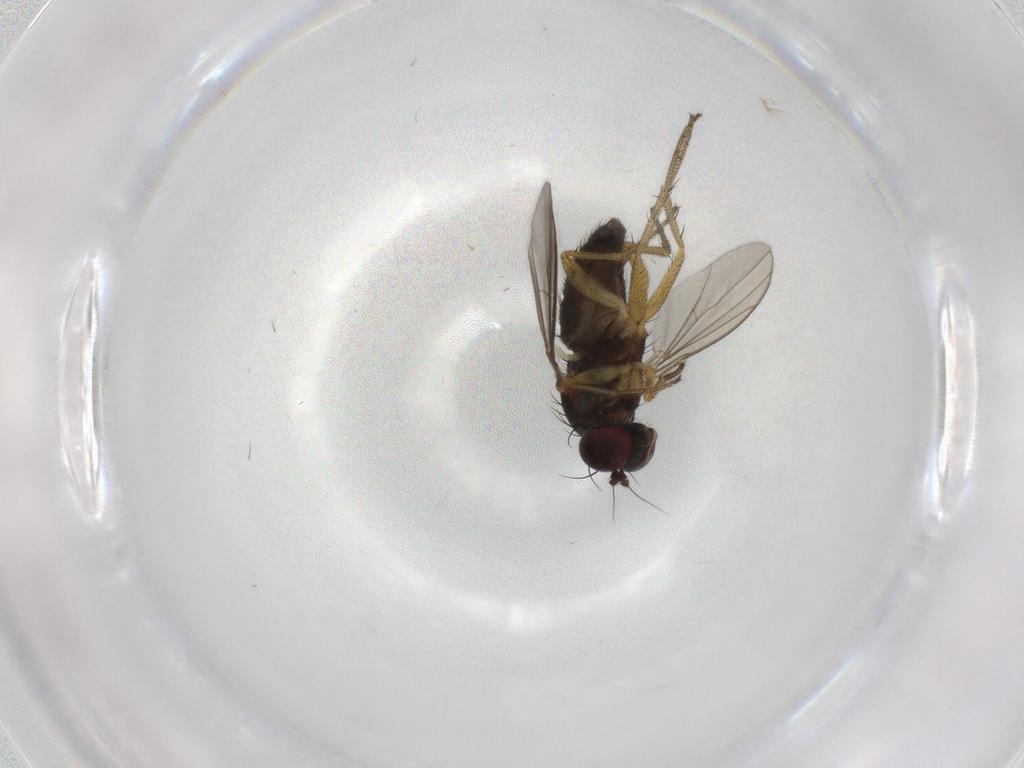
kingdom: Animalia
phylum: Arthropoda
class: Insecta
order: Diptera
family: Dolichopodidae
